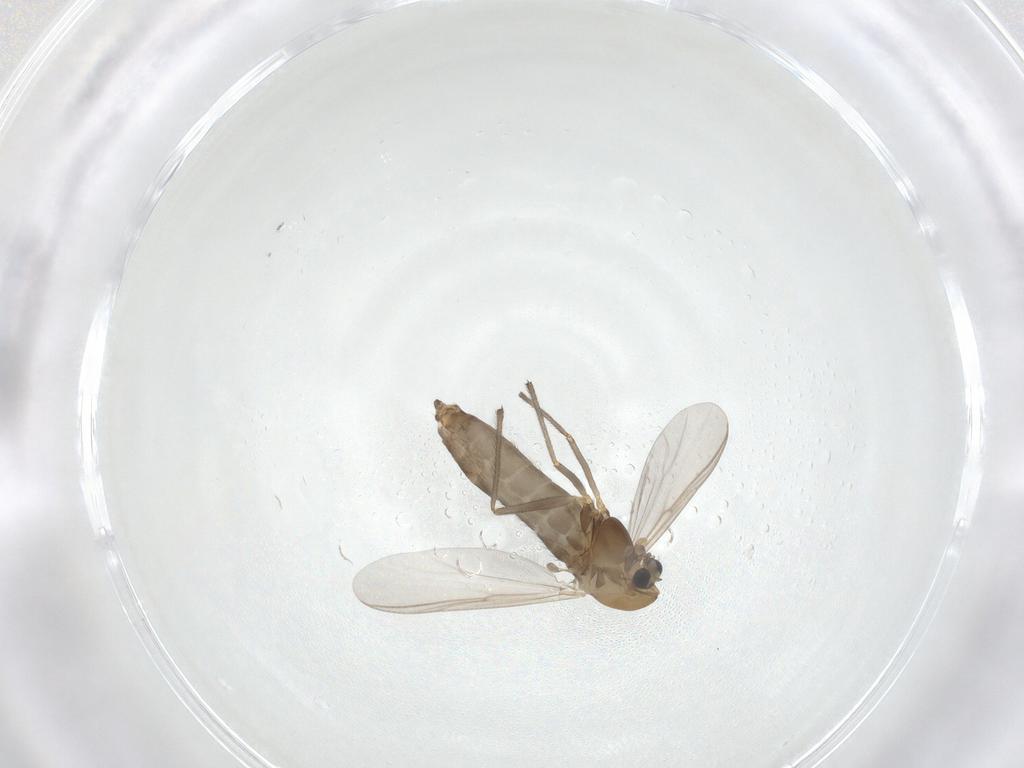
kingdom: Animalia
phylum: Arthropoda
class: Insecta
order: Diptera
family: Chironomidae
